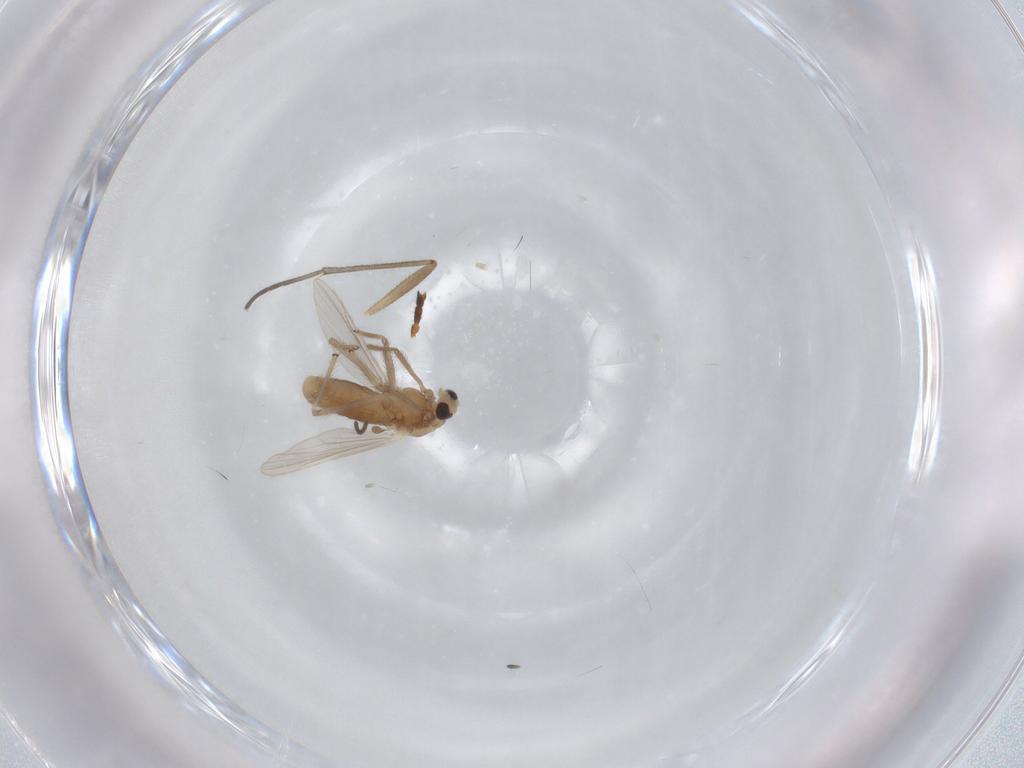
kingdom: Animalia
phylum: Arthropoda
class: Insecta
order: Diptera
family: Chironomidae
